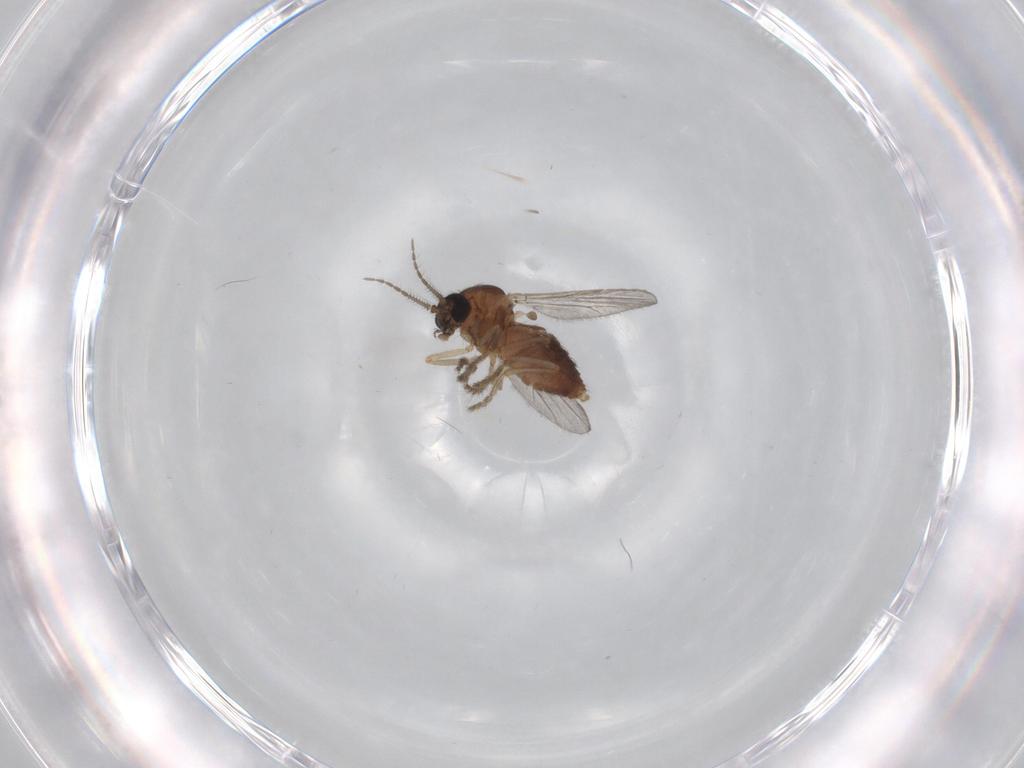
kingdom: Animalia
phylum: Arthropoda
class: Insecta
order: Diptera
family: Ceratopogonidae
